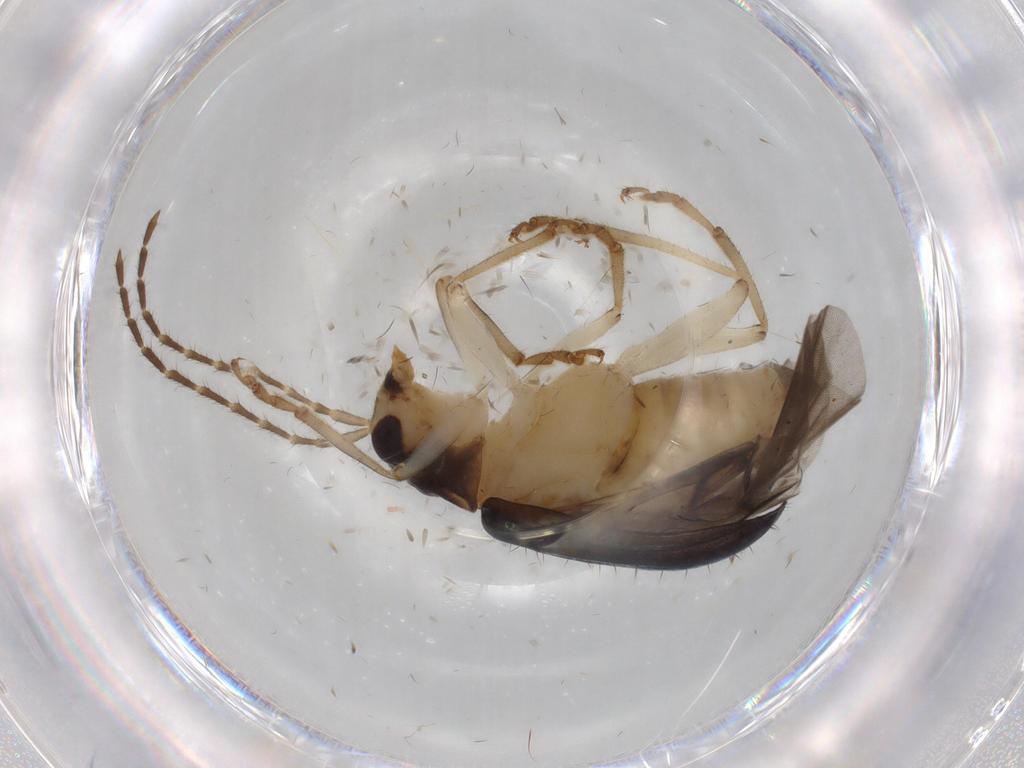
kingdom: Animalia
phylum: Arthropoda
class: Insecta
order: Coleoptera
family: Chrysomelidae
